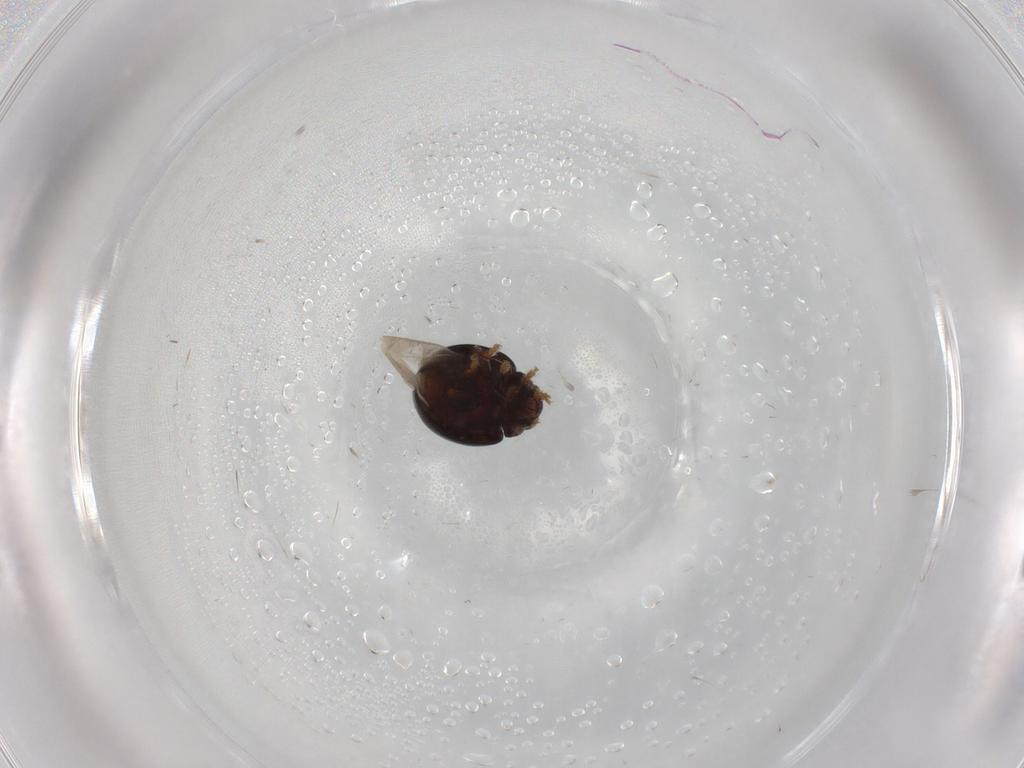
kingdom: Animalia
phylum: Arthropoda
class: Insecta
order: Coleoptera
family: Chrysomelidae
